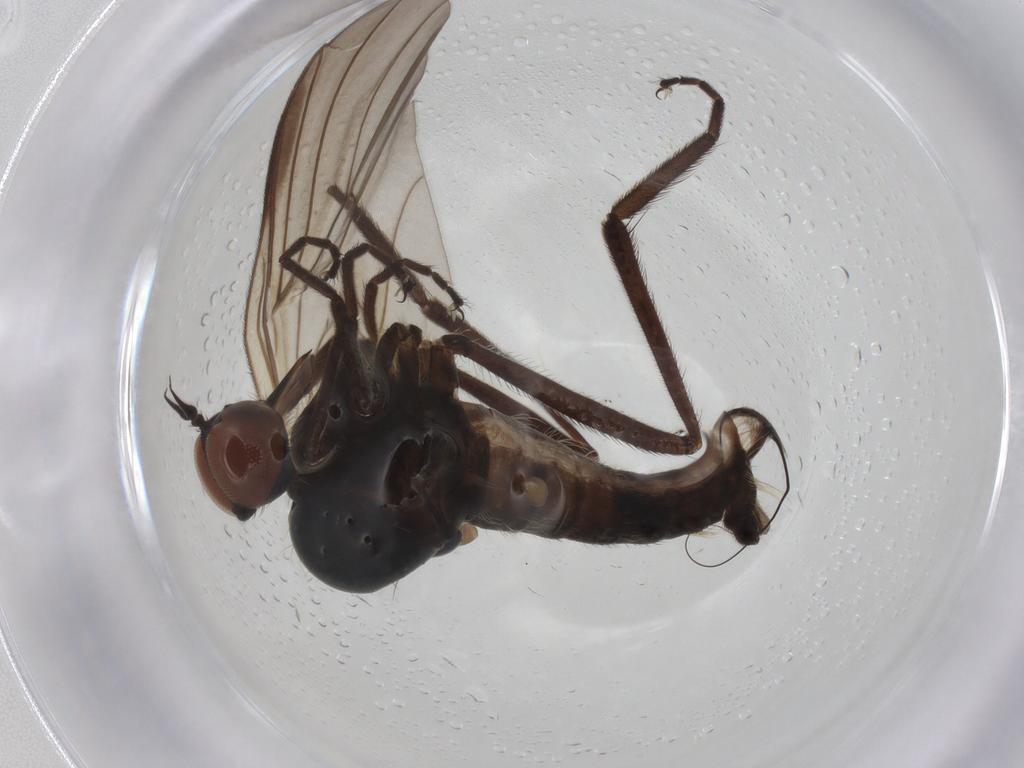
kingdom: Animalia
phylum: Arthropoda
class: Insecta
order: Diptera
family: Empididae
